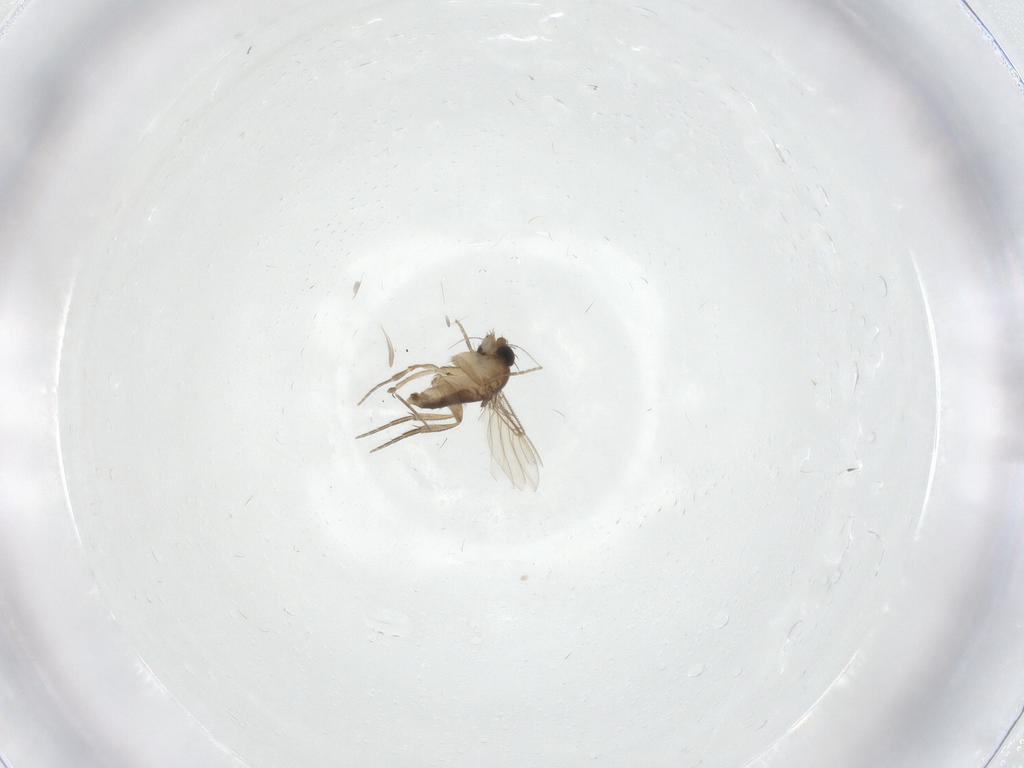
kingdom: Animalia
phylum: Arthropoda
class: Insecta
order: Diptera
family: Phoridae
